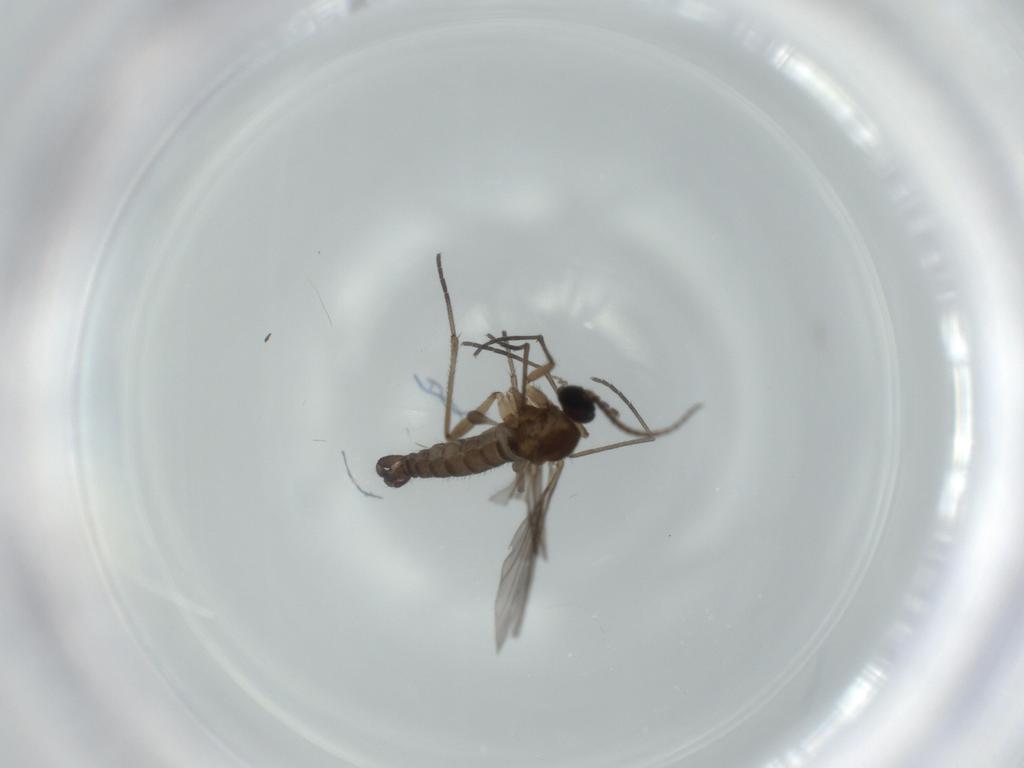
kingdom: Animalia
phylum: Arthropoda
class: Insecta
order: Diptera
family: Sciaridae
